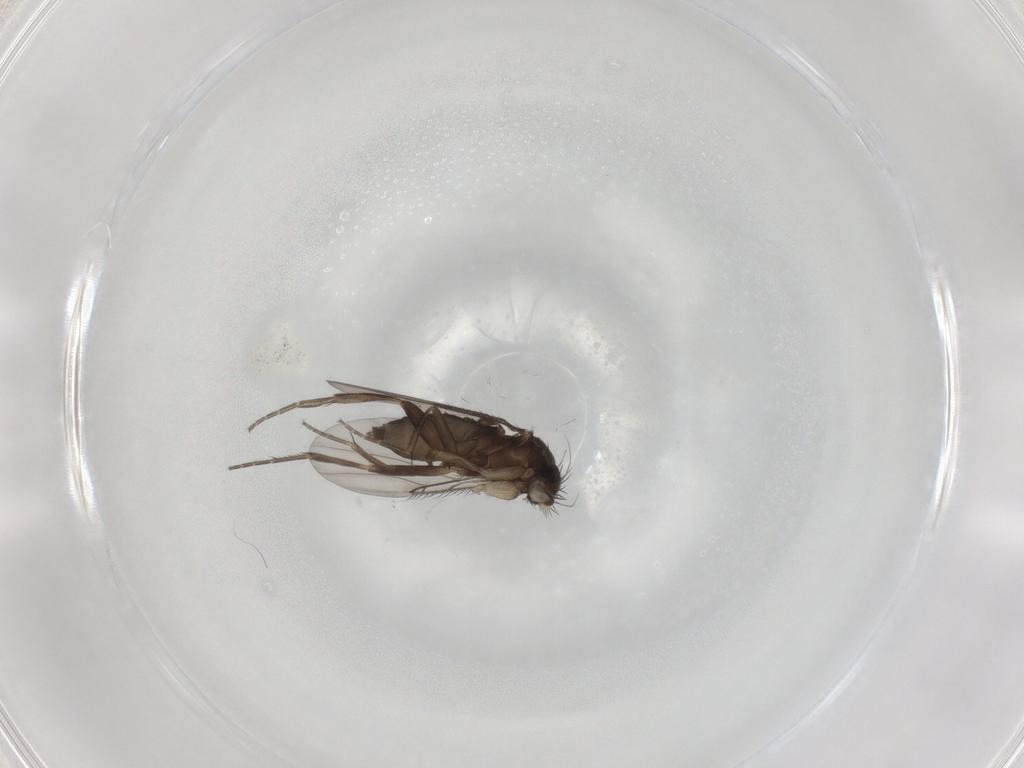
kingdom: Animalia
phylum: Arthropoda
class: Insecta
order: Diptera
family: Phoridae
